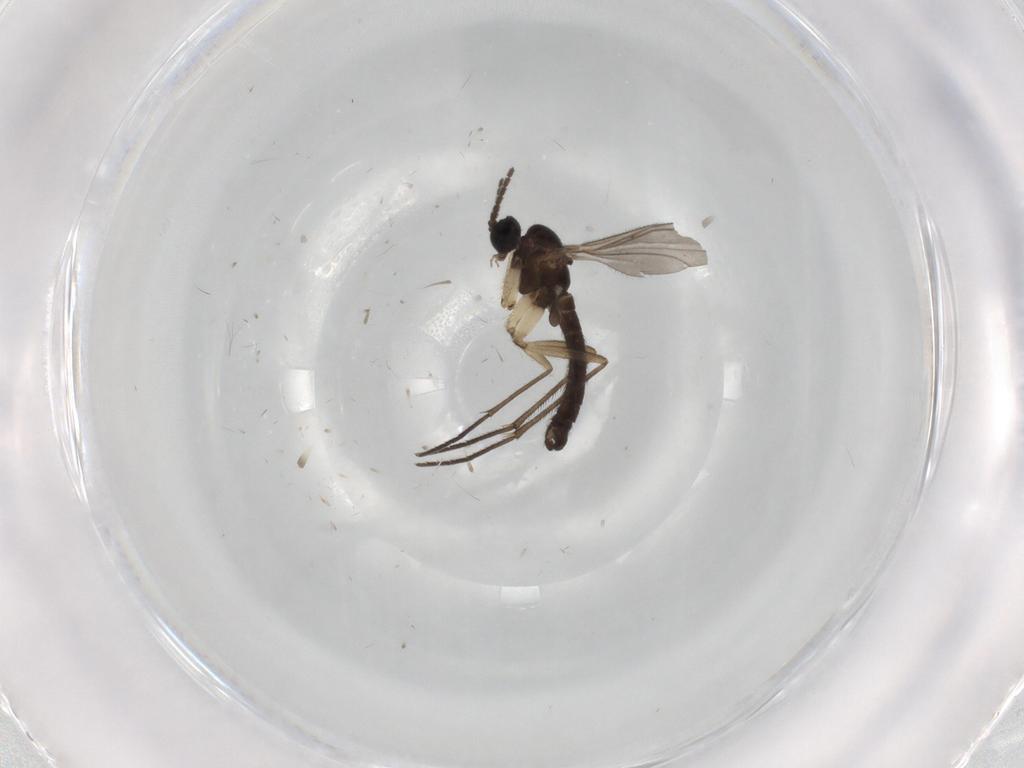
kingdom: Animalia
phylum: Arthropoda
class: Insecta
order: Diptera
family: Sciaridae
